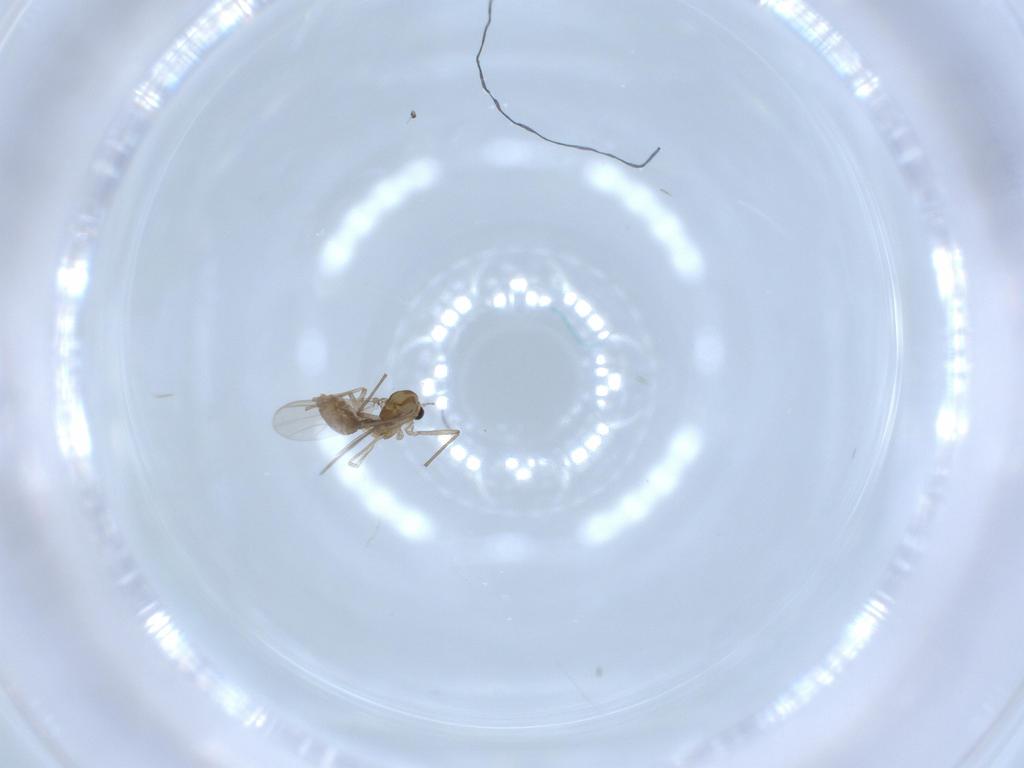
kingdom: Animalia
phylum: Arthropoda
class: Insecta
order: Diptera
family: Chironomidae
